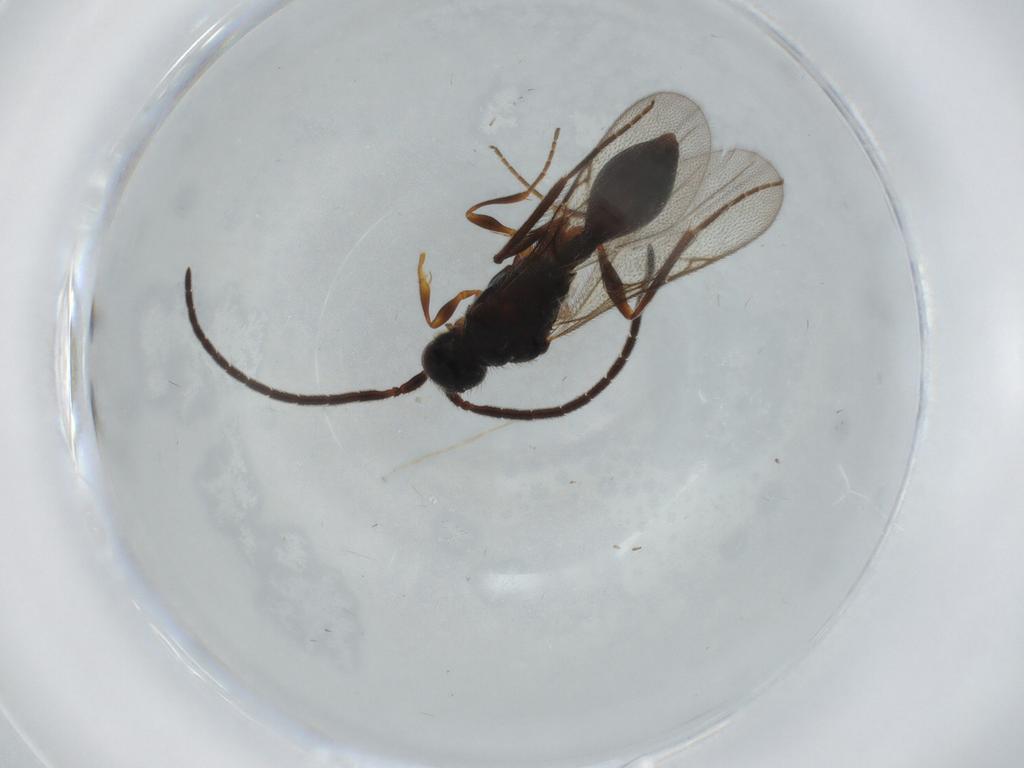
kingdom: Animalia
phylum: Arthropoda
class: Insecta
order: Hymenoptera
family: Diapriidae
